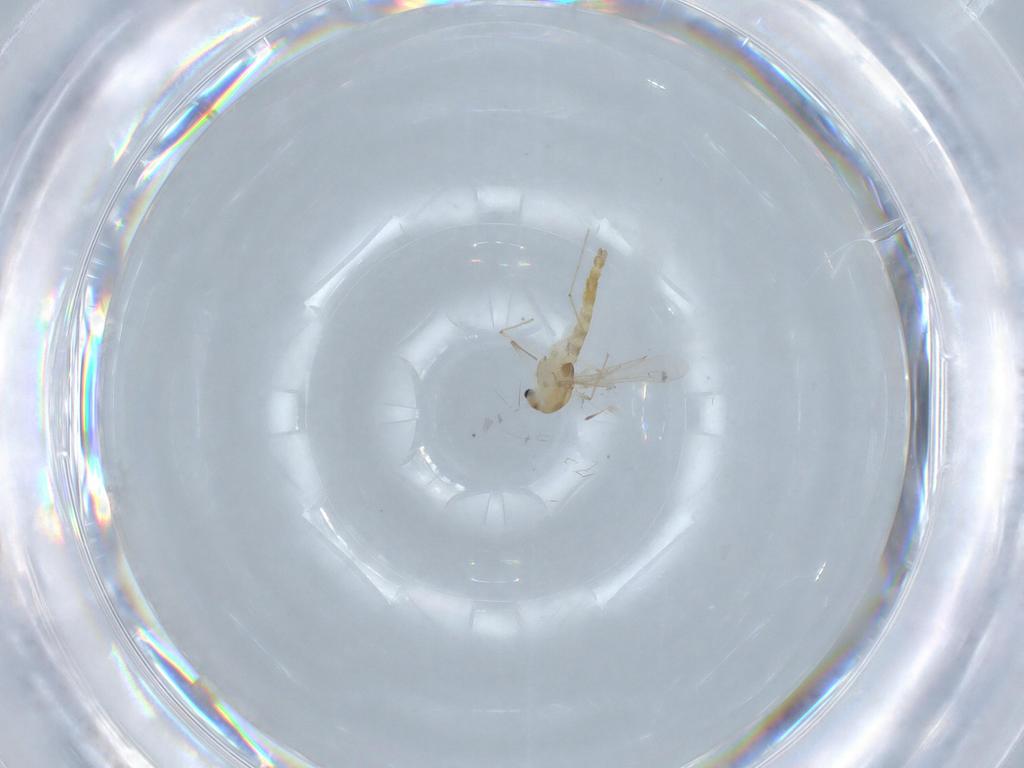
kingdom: Animalia
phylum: Arthropoda
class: Insecta
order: Diptera
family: Chironomidae
